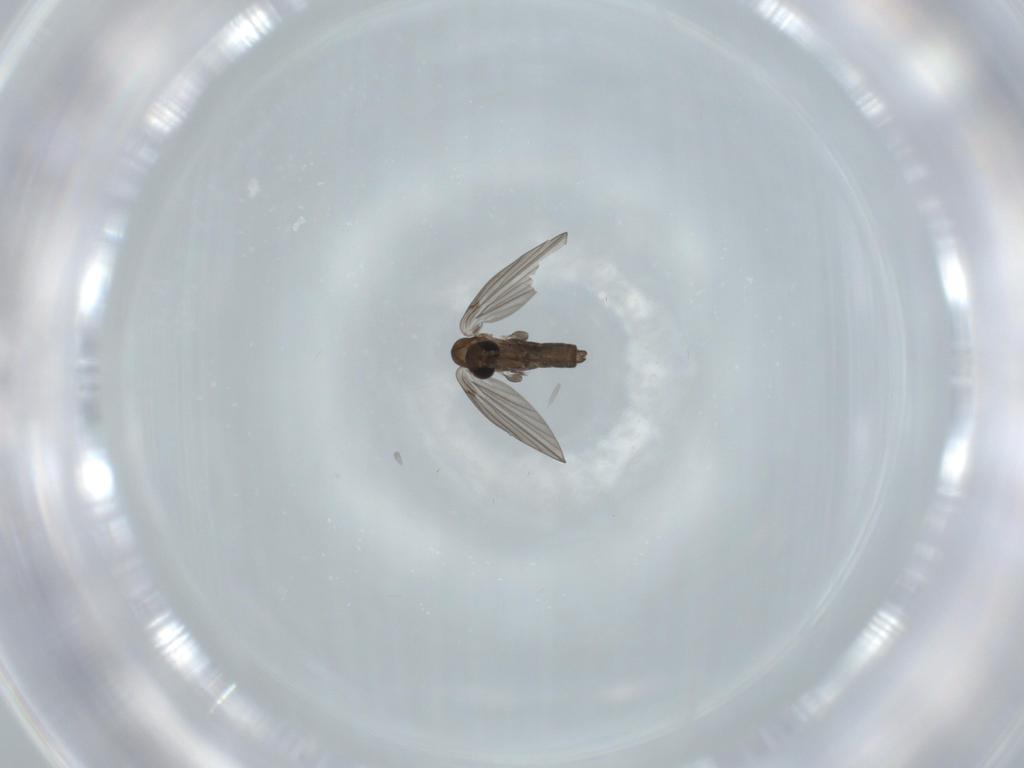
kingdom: Animalia
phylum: Arthropoda
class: Insecta
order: Diptera
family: Psychodidae
